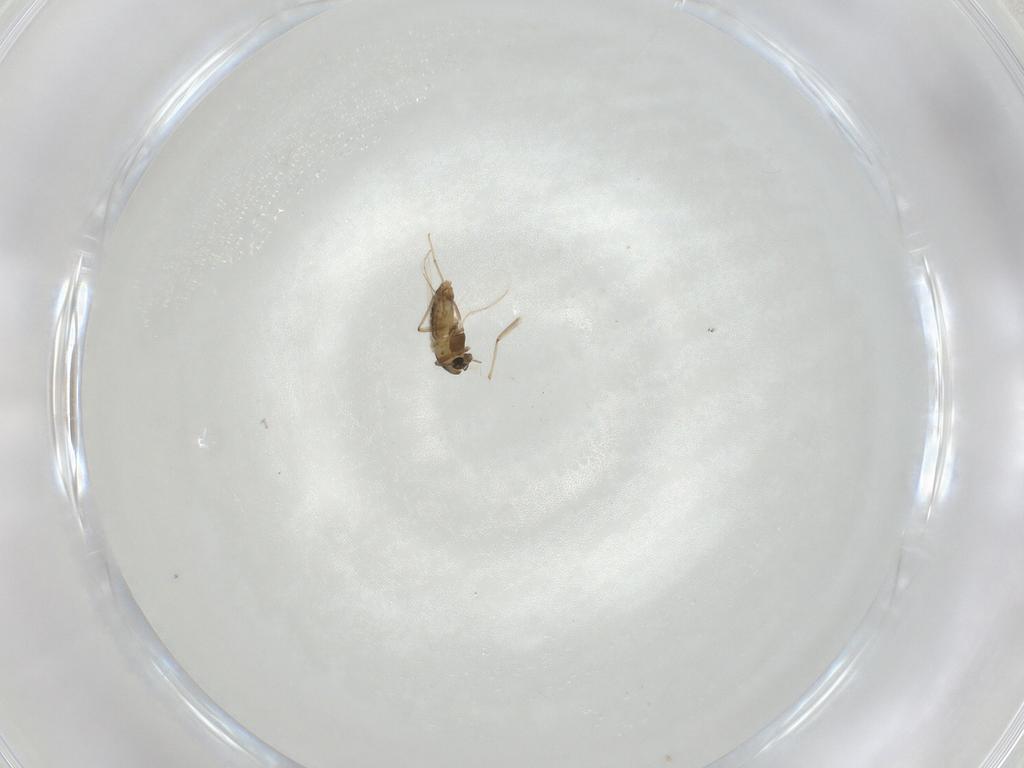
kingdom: Animalia
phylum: Arthropoda
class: Insecta
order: Diptera
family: Chironomidae
